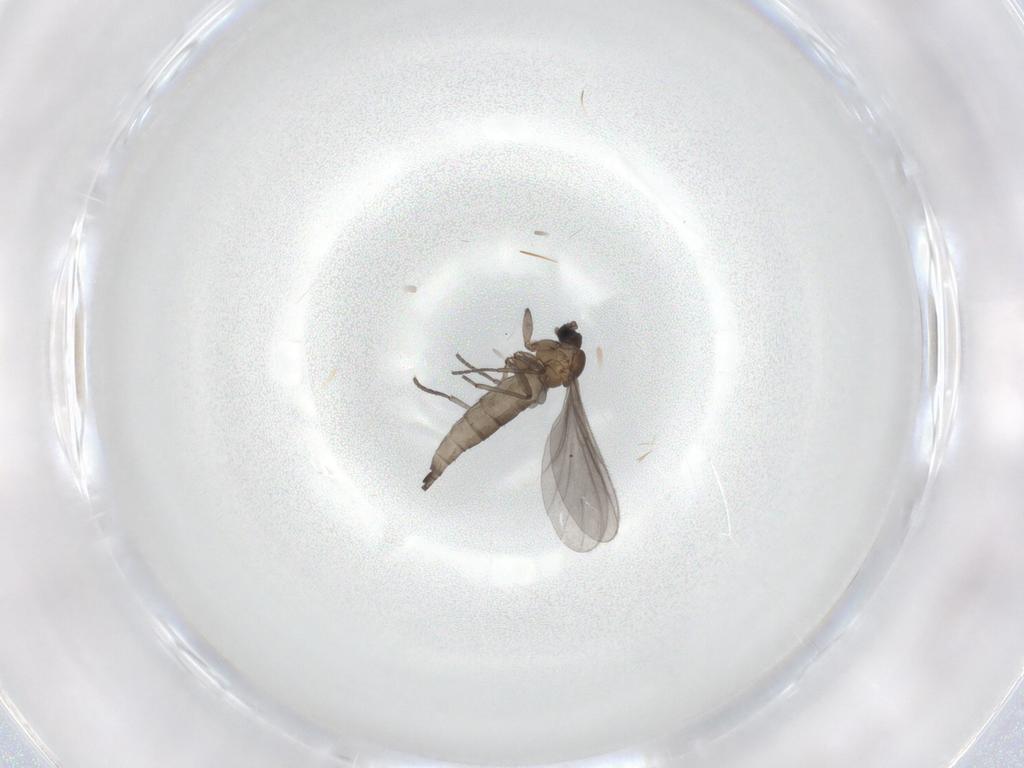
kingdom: Animalia
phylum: Arthropoda
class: Insecta
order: Diptera
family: Sciaridae
